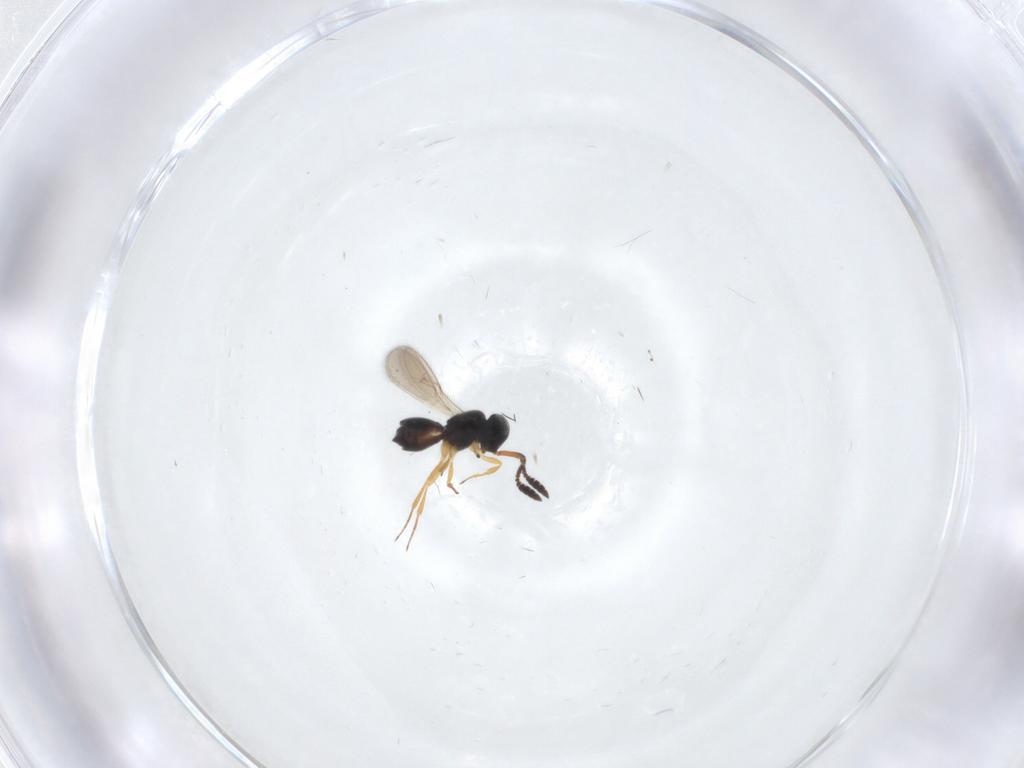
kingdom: Animalia
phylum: Arthropoda
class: Insecta
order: Hymenoptera
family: Scelionidae
